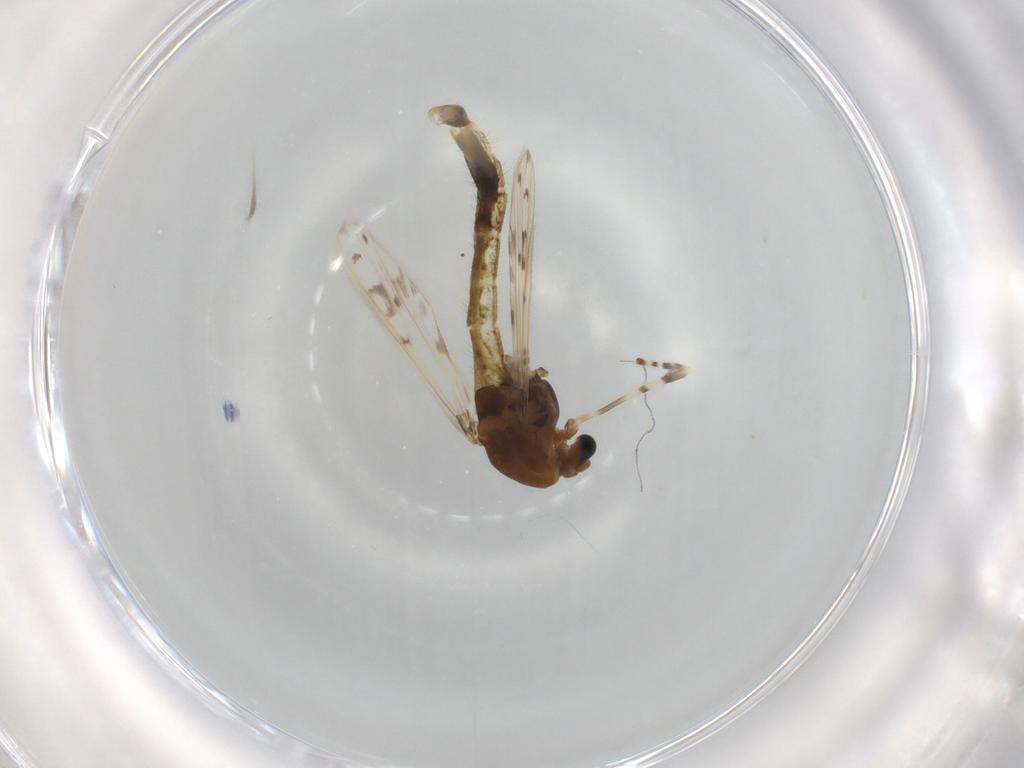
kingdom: Animalia
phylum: Arthropoda
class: Insecta
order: Diptera
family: Chironomidae
